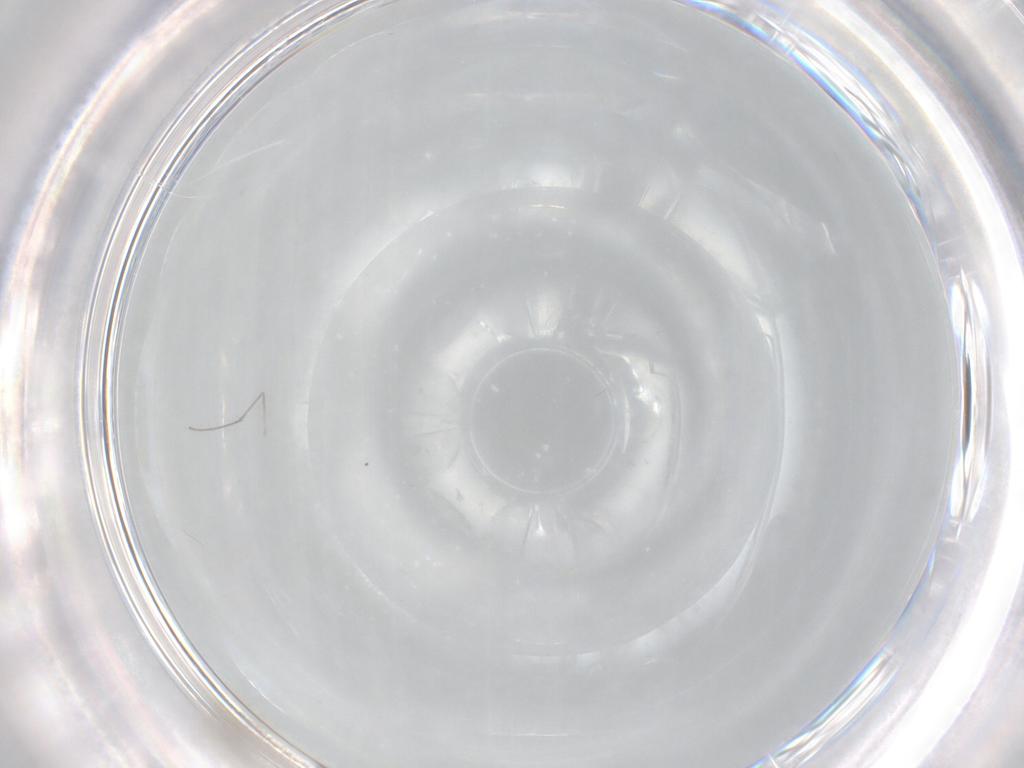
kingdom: Animalia
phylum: Arthropoda
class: Insecta
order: Diptera
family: Cecidomyiidae
